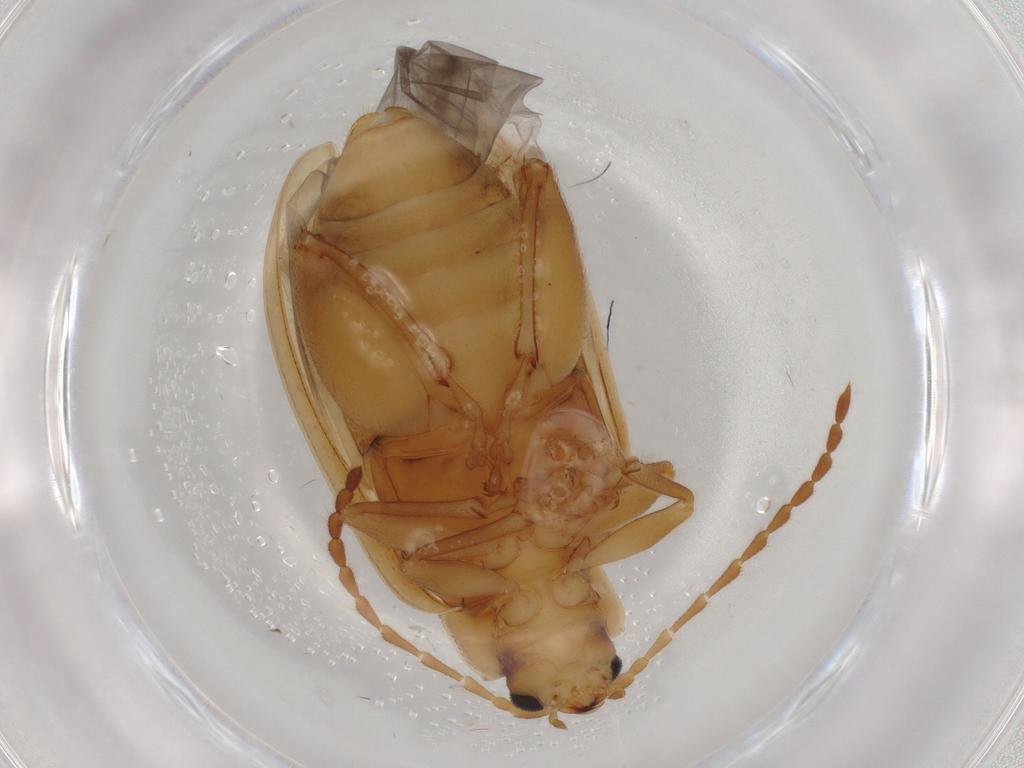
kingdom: Animalia
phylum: Arthropoda
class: Insecta
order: Coleoptera
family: Chrysomelidae
